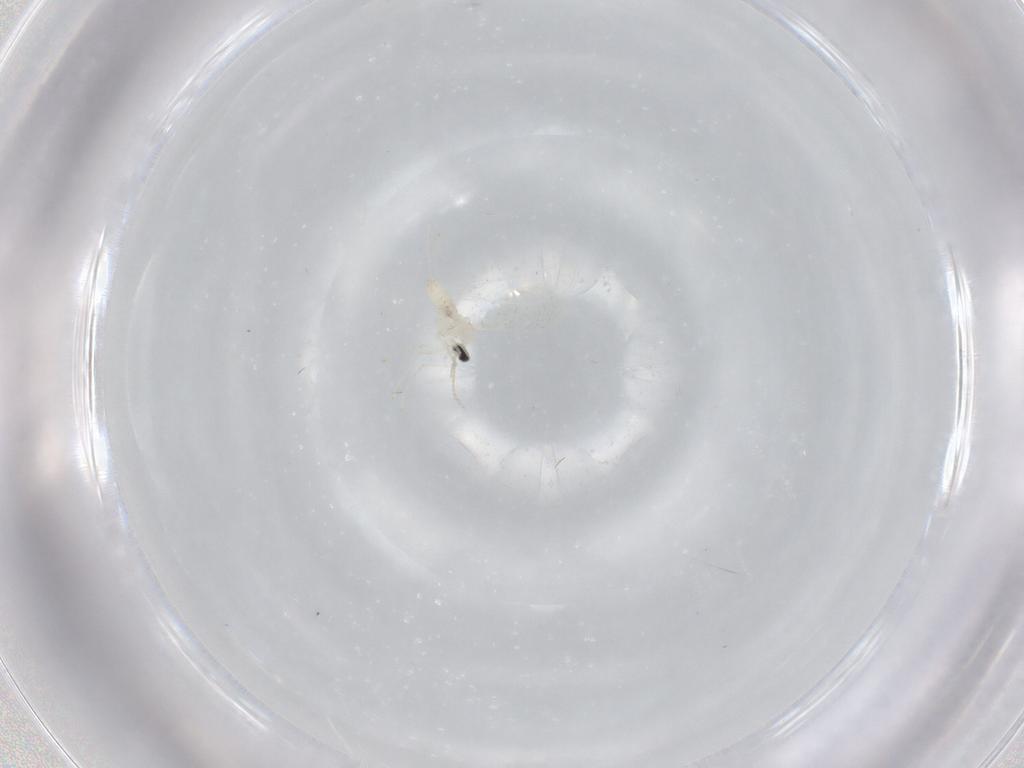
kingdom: Animalia
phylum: Arthropoda
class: Insecta
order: Diptera
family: Cecidomyiidae
